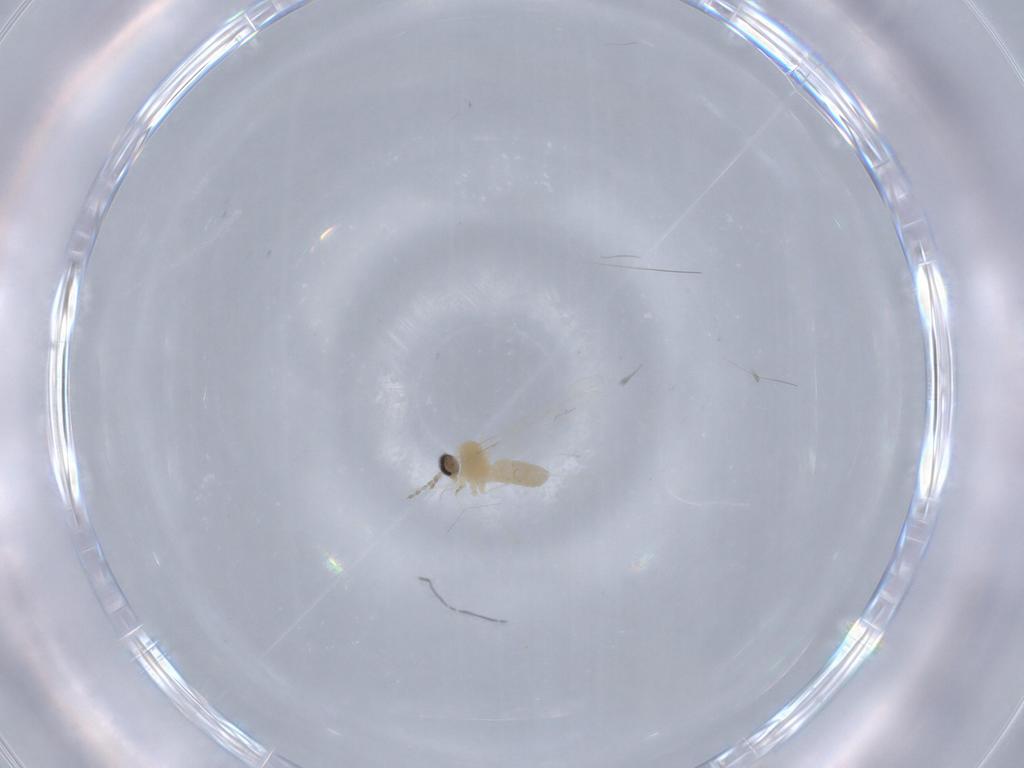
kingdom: Animalia
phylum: Arthropoda
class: Insecta
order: Diptera
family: Cecidomyiidae
